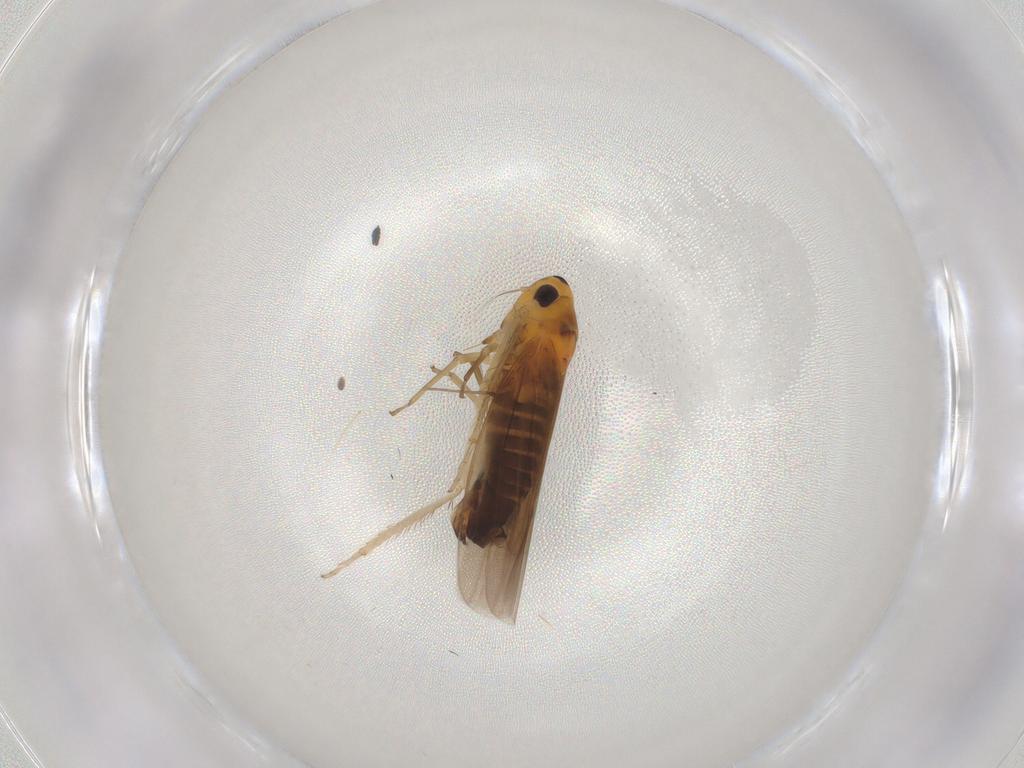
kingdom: Animalia
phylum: Arthropoda
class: Insecta
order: Hemiptera
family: Cicadellidae
